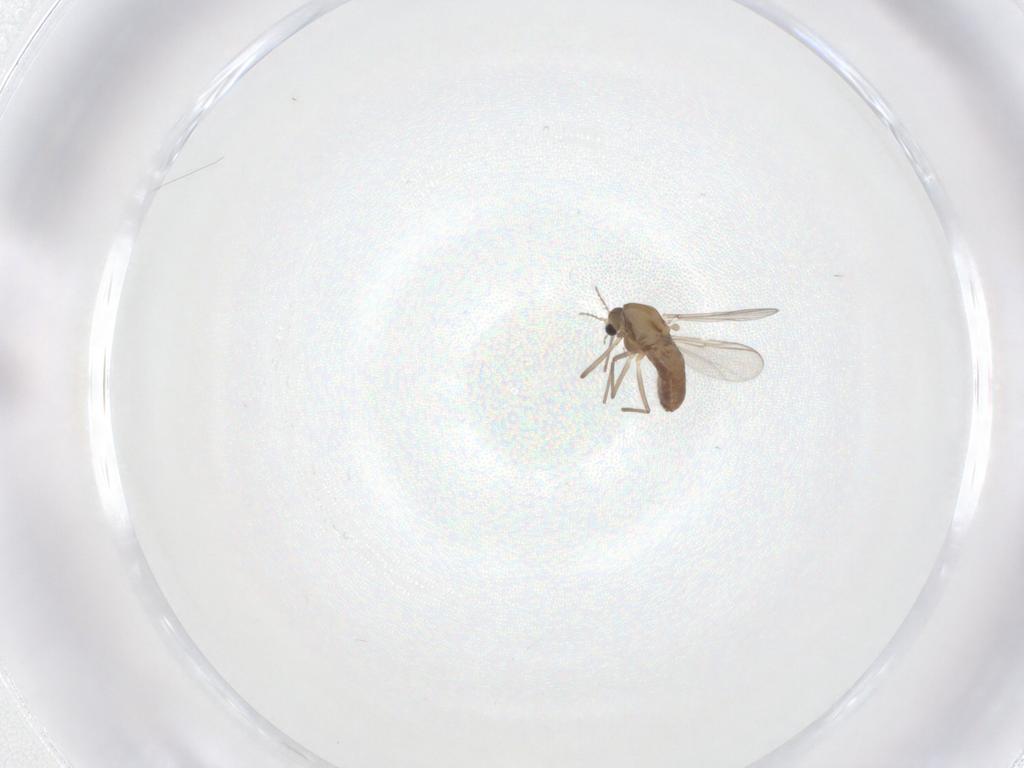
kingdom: Animalia
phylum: Arthropoda
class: Insecta
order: Diptera
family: Chironomidae
